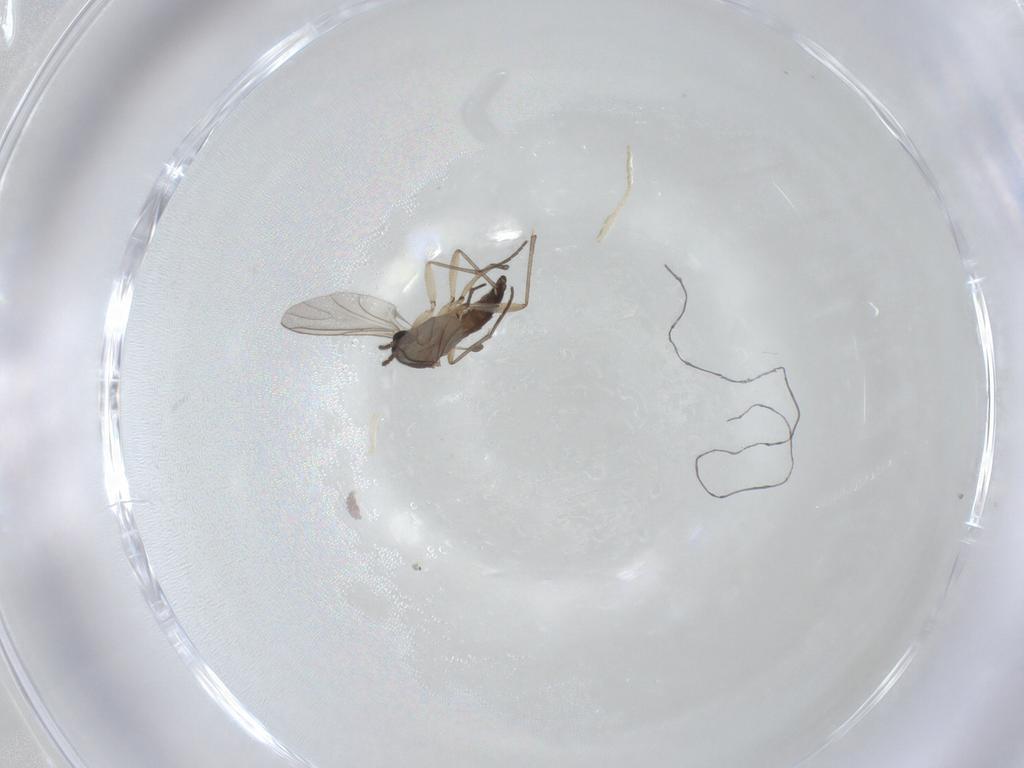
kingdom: Animalia
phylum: Arthropoda
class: Insecta
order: Diptera
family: Sciaridae
